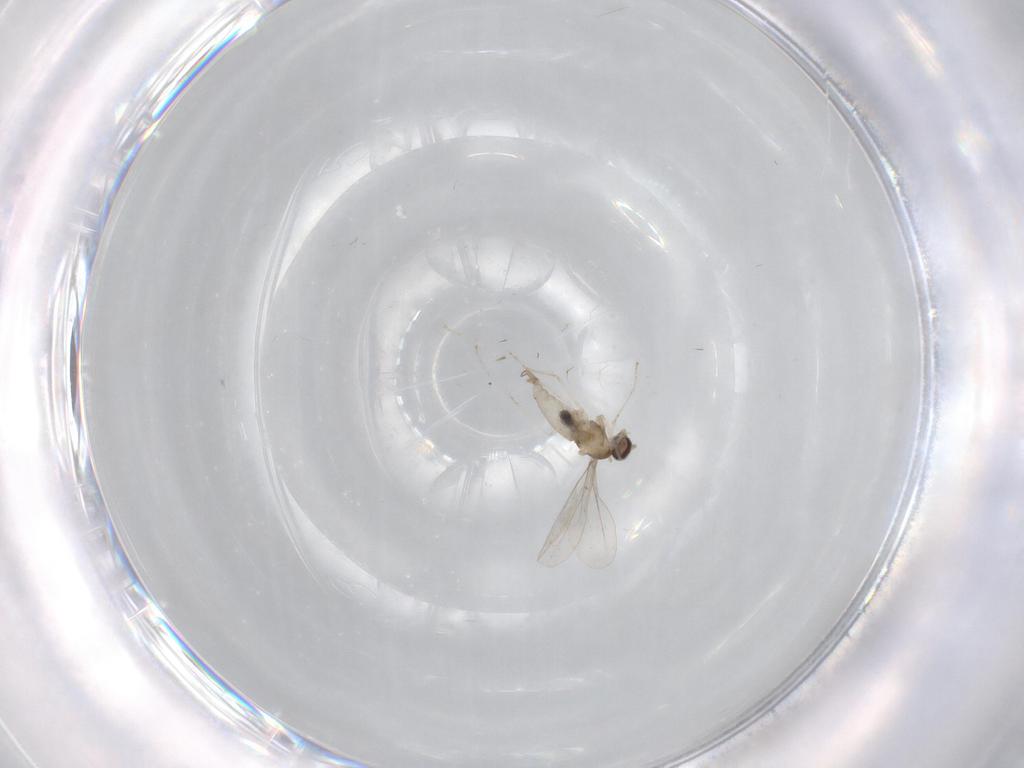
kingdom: Animalia
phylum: Arthropoda
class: Insecta
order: Diptera
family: Cecidomyiidae
